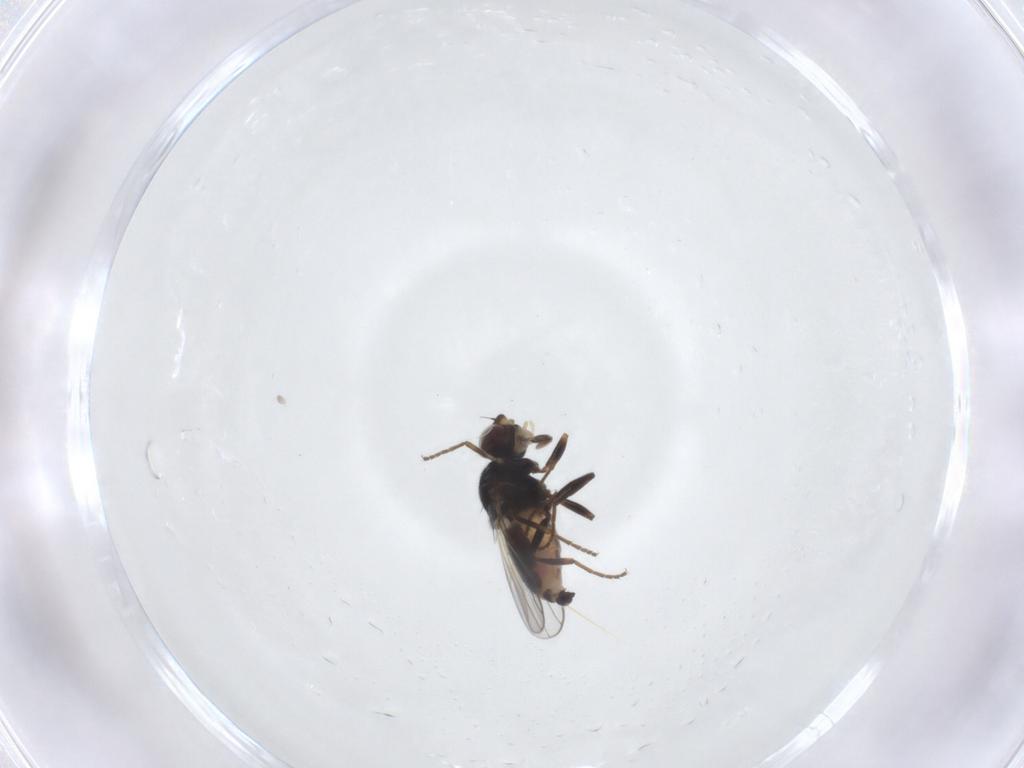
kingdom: Animalia
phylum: Arthropoda
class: Insecta
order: Diptera
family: Chloropidae
